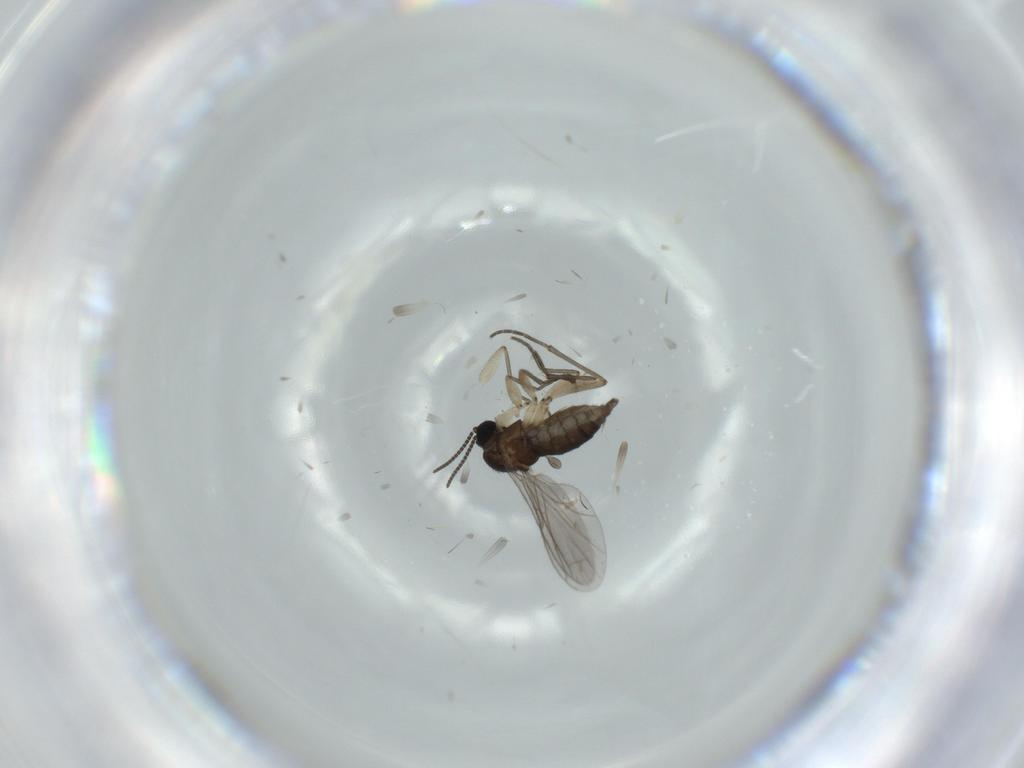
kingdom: Animalia
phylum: Arthropoda
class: Insecta
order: Diptera
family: Sciaridae
